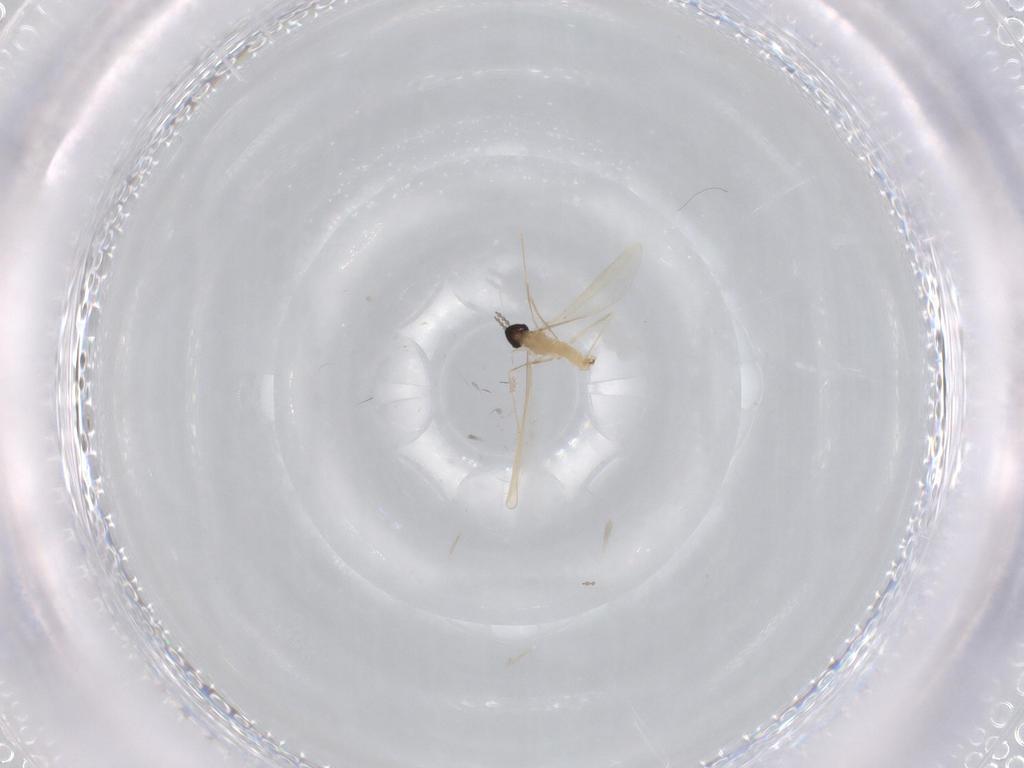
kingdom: Animalia
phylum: Arthropoda
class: Insecta
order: Diptera
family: Cecidomyiidae
